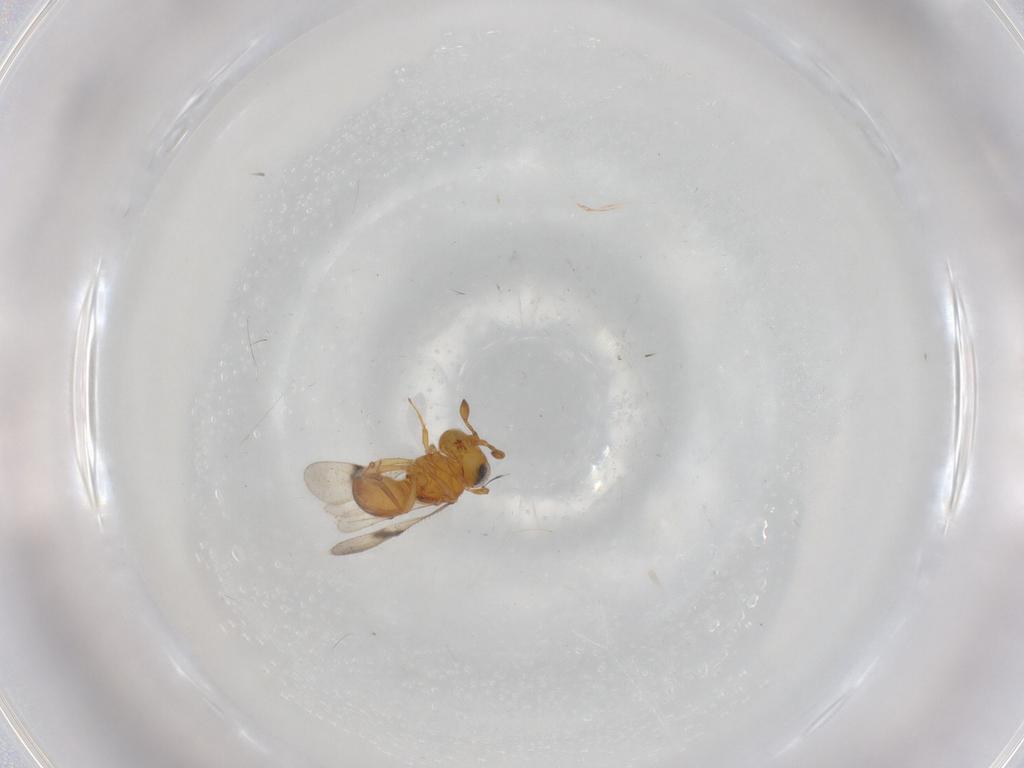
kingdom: Animalia
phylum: Arthropoda
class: Insecta
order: Hymenoptera
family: Scelionidae
